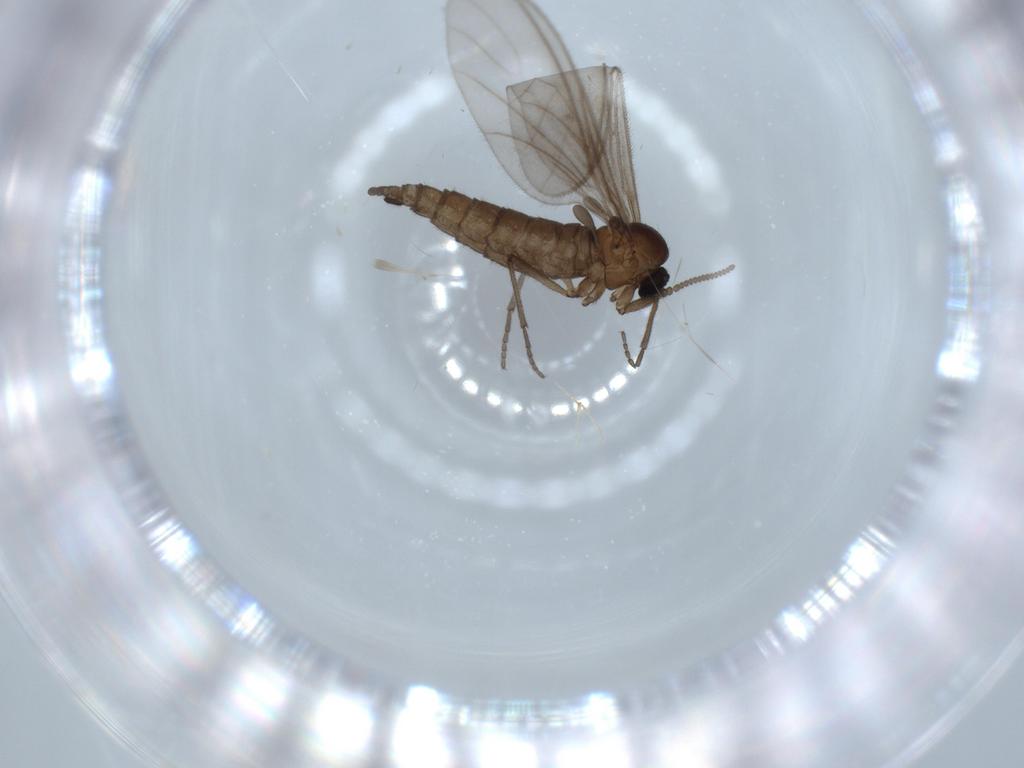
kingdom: Animalia
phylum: Arthropoda
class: Insecta
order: Diptera
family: Sciaridae
